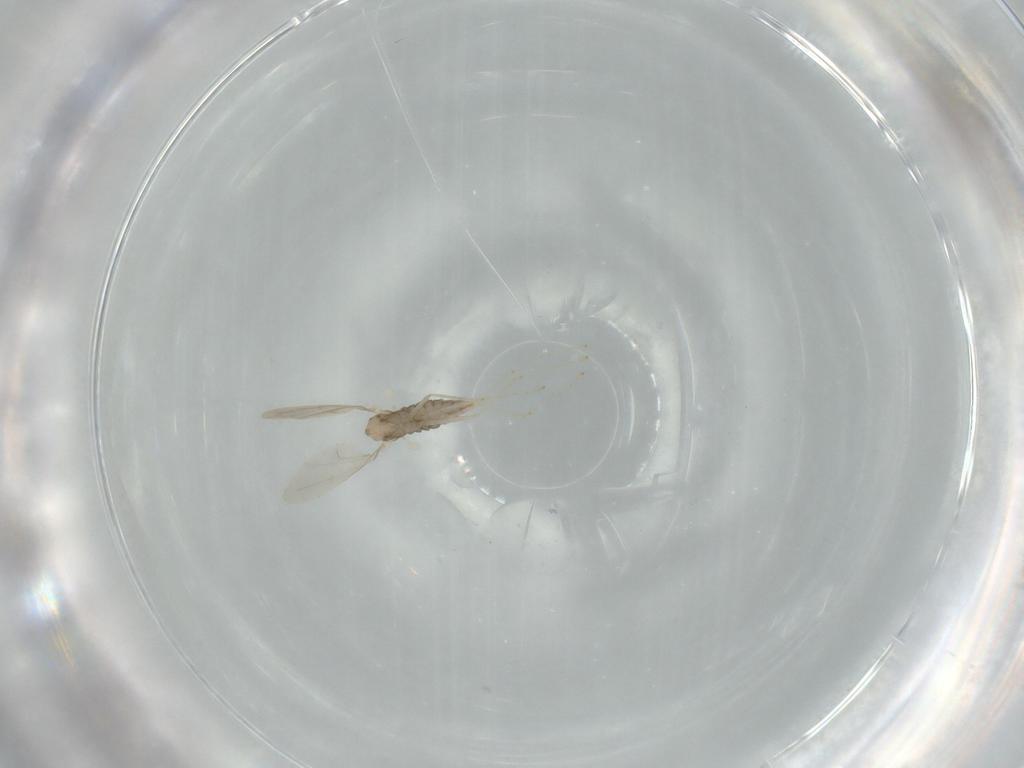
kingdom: Animalia
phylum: Arthropoda
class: Insecta
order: Diptera
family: Cecidomyiidae
